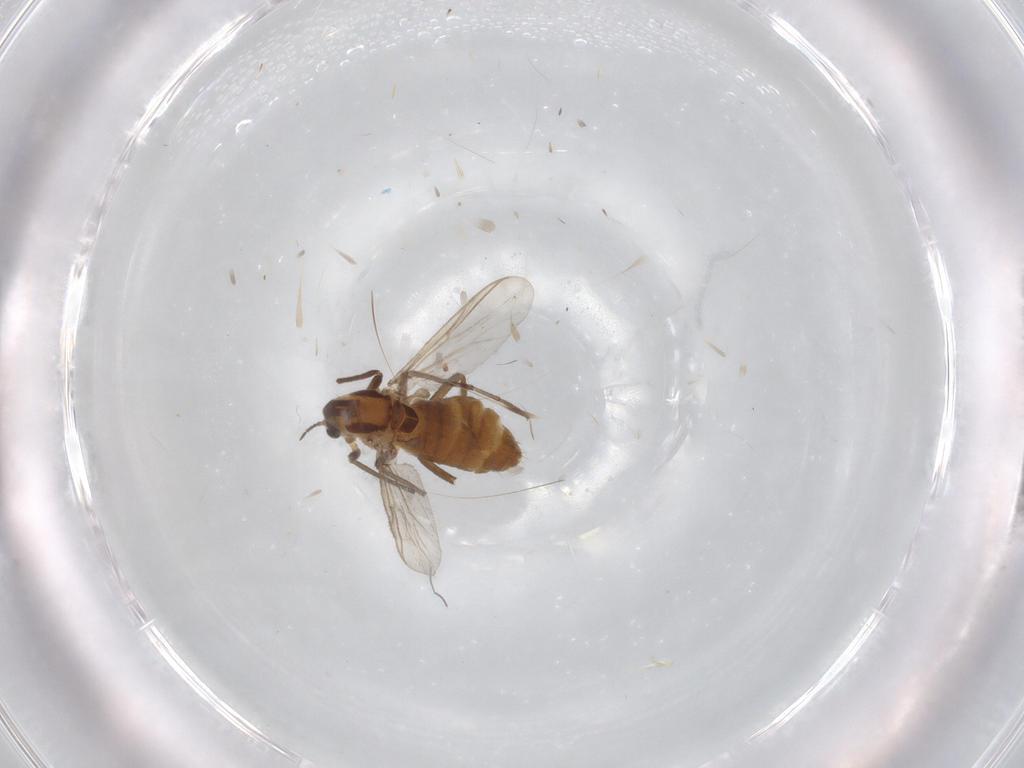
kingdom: Animalia
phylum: Arthropoda
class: Insecta
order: Diptera
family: Chironomidae
